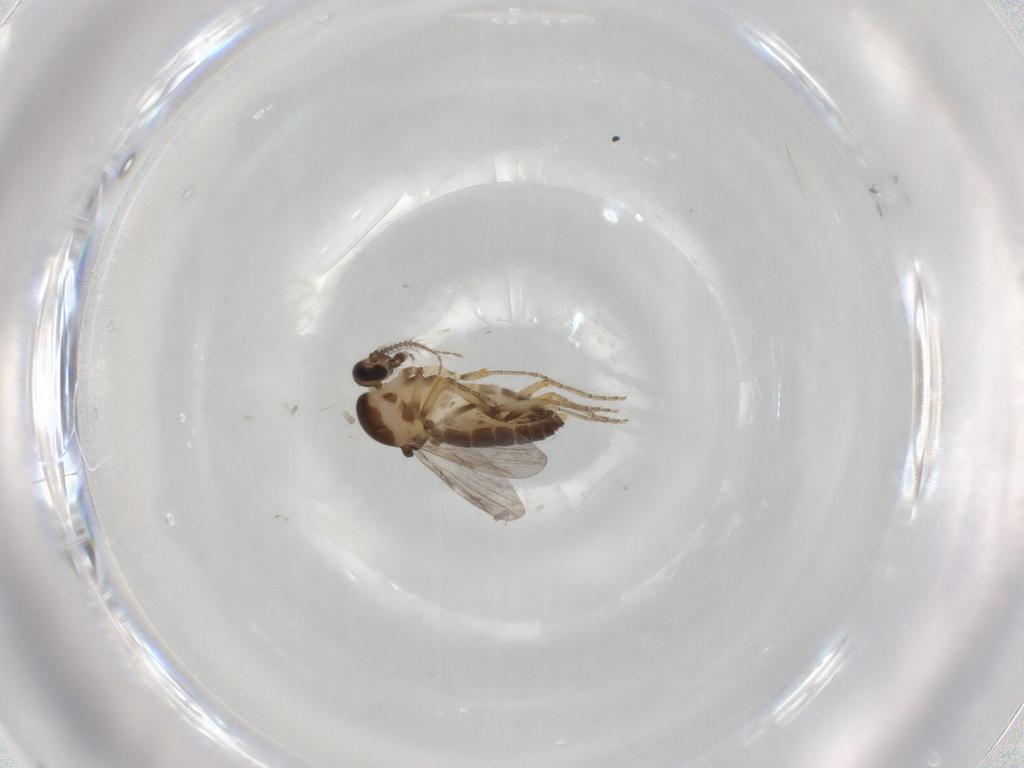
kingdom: Animalia
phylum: Arthropoda
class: Insecta
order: Diptera
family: Ceratopogonidae
